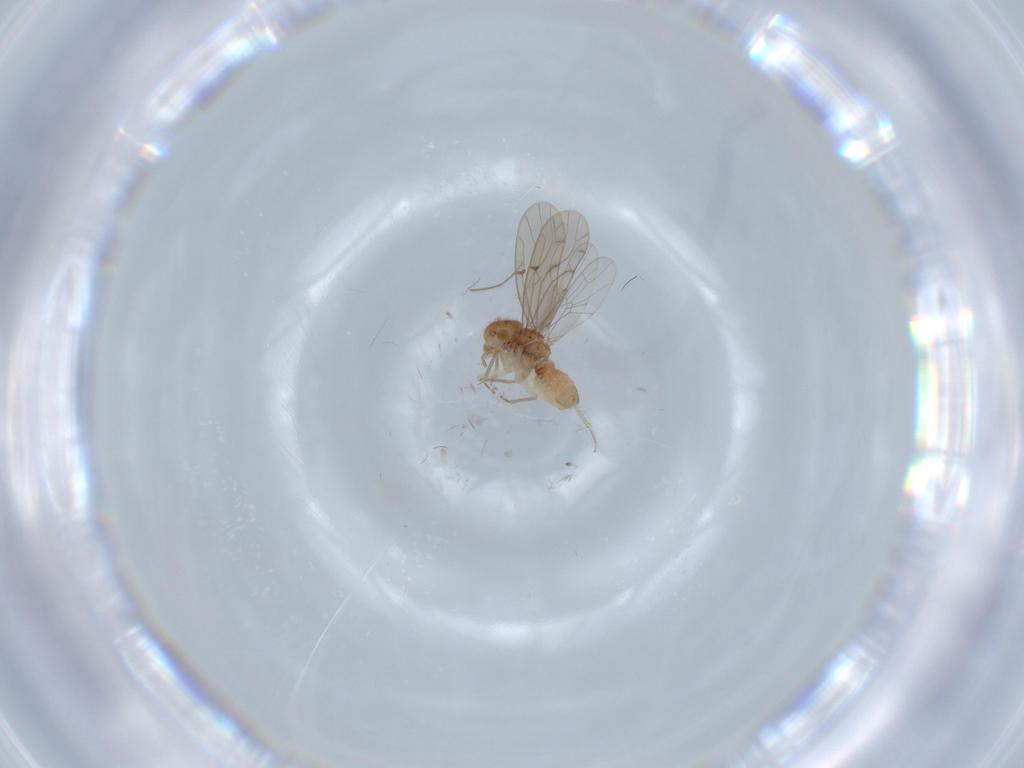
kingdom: Animalia
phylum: Arthropoda
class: Insecta
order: Psocodea
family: Ectopsocidae
